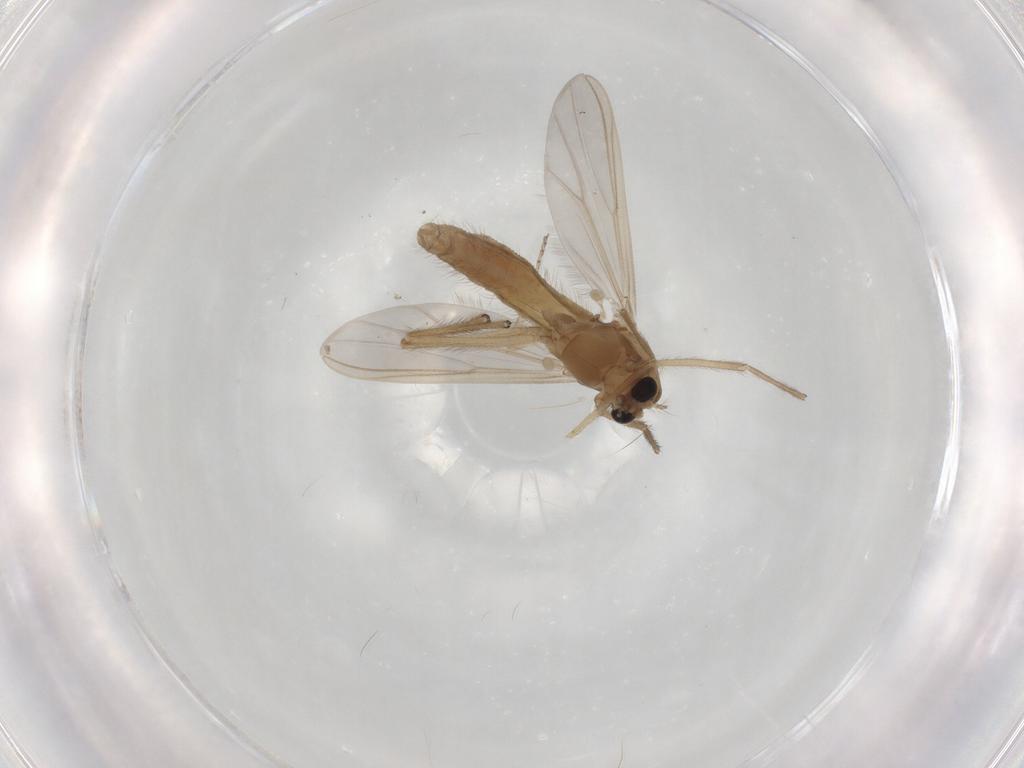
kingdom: Animalia
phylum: Arthropoda
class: Insecta
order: Diptera
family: Chironomidae
